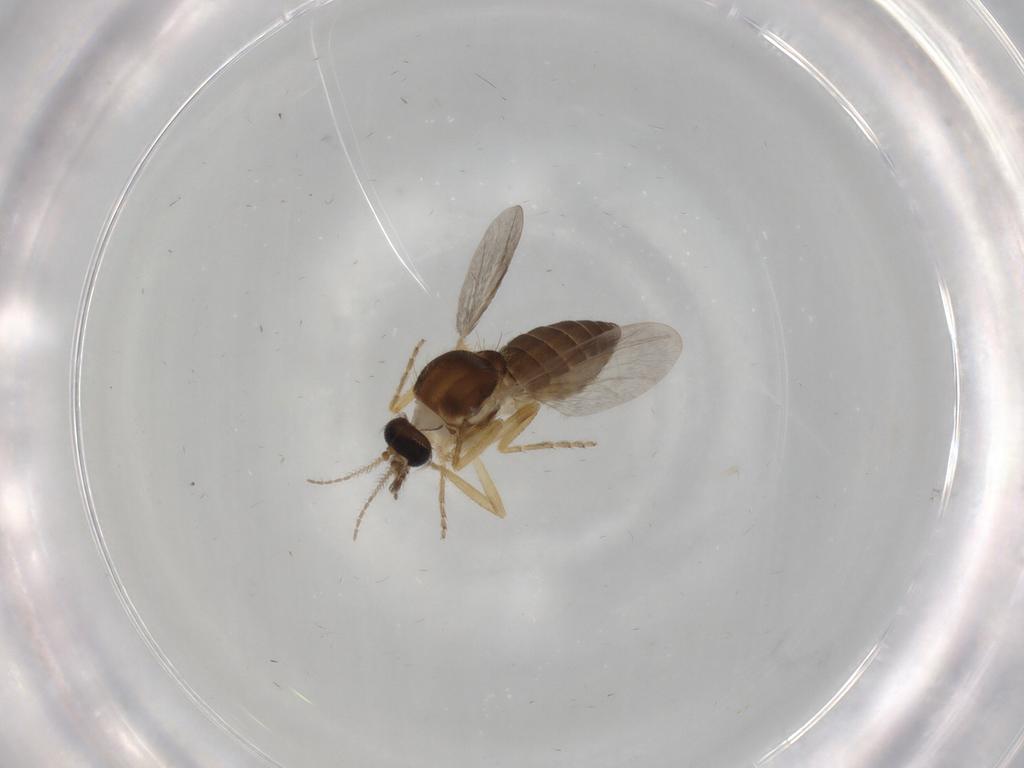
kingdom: Animalia
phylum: Arthropoda
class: Insecta
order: Diptera
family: Ceratopogonidae
